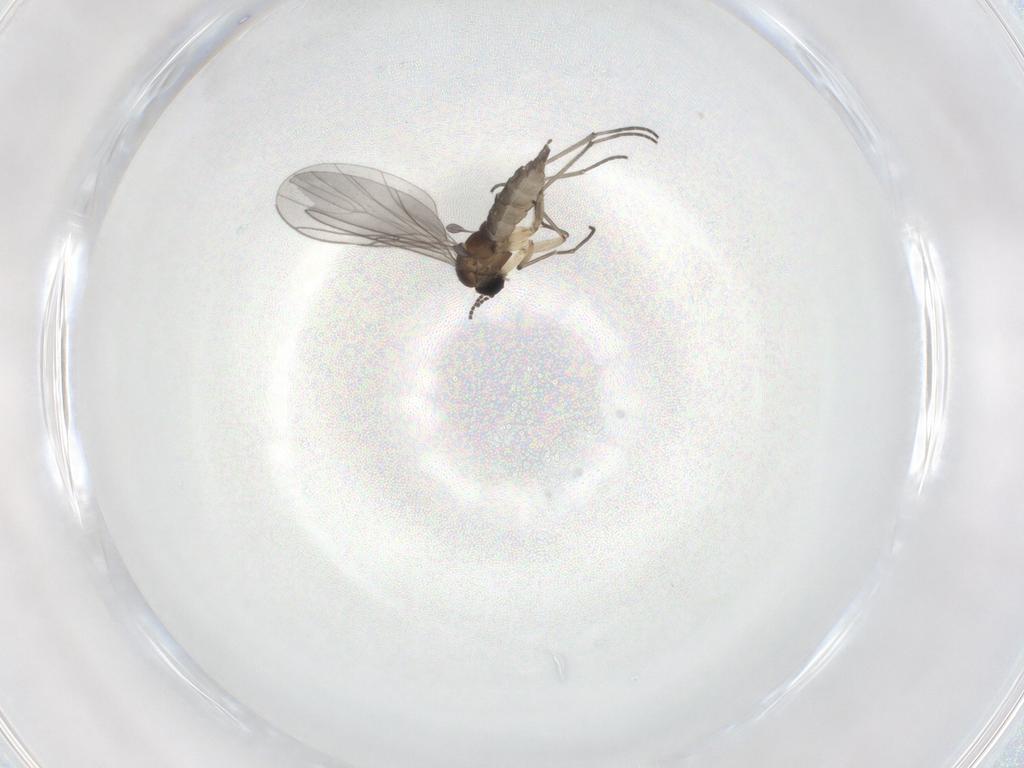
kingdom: Animalia
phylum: Arthropoda
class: Insecta
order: Diptera
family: Sciaridae
